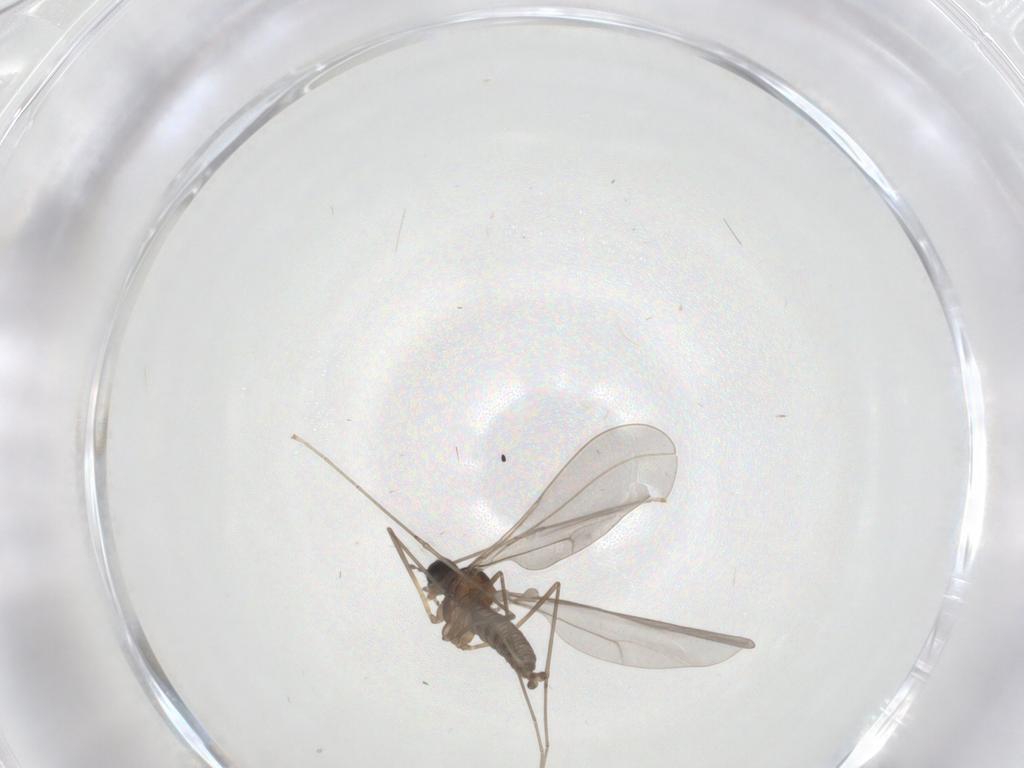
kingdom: Animalia
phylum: Arthropoda
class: Insecta
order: Diptera
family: Cecidomyiidae
